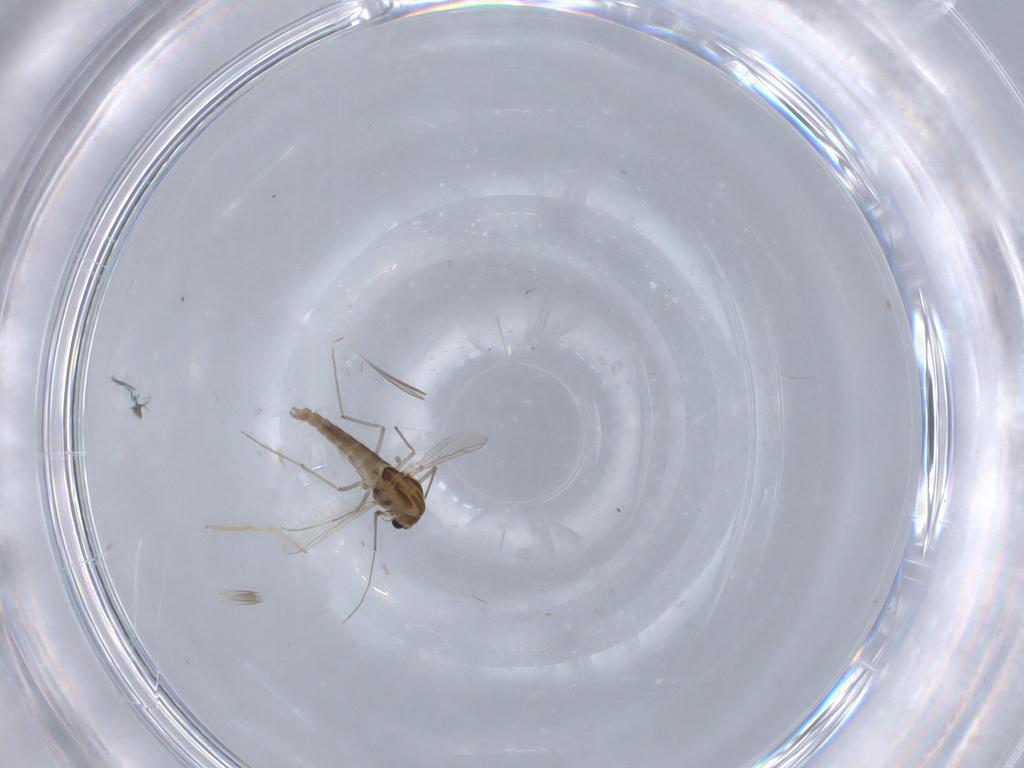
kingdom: Animalia
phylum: Arthropoda
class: Insecta
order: Diptera
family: Chironomidae
